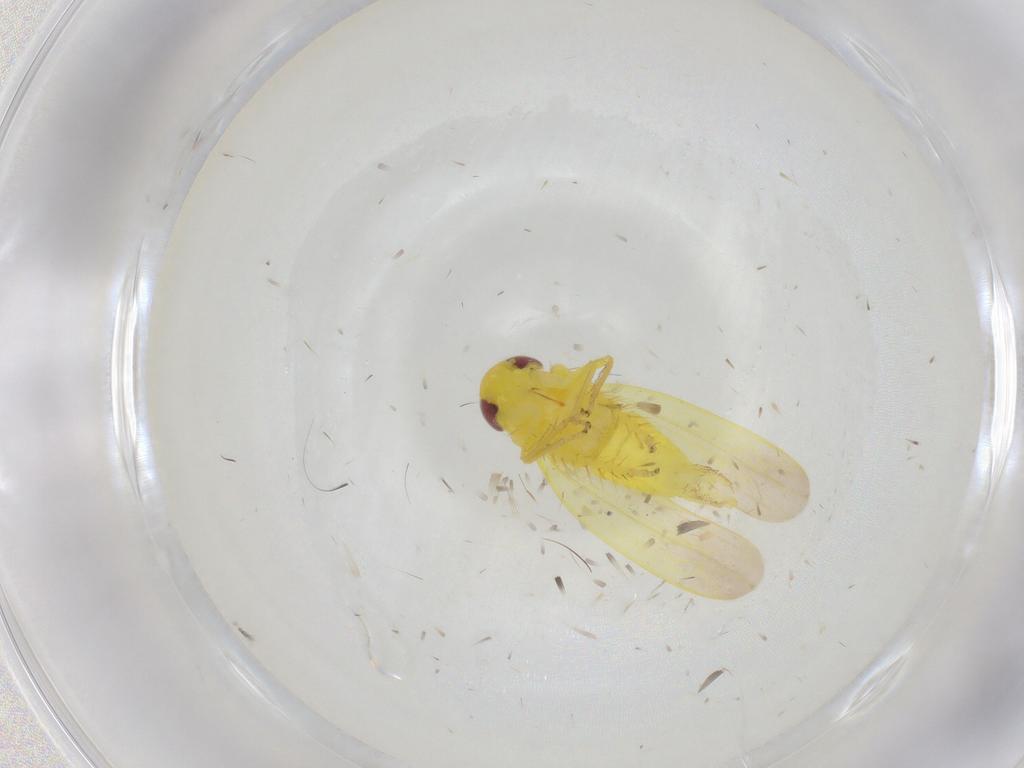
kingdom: Animalia
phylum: Arthropoda
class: Insecta
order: Hemiptera
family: Cicadellidae
